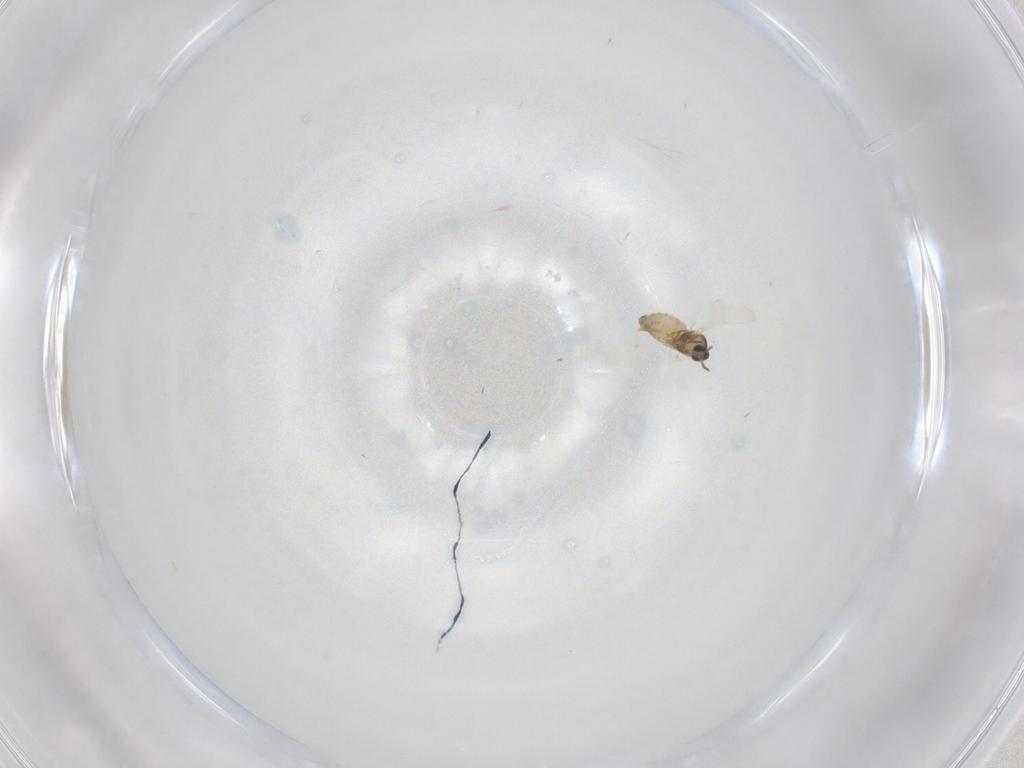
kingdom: Animalia
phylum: Arthropoda
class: Insecta
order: Diptera
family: Cecidomyiidae
